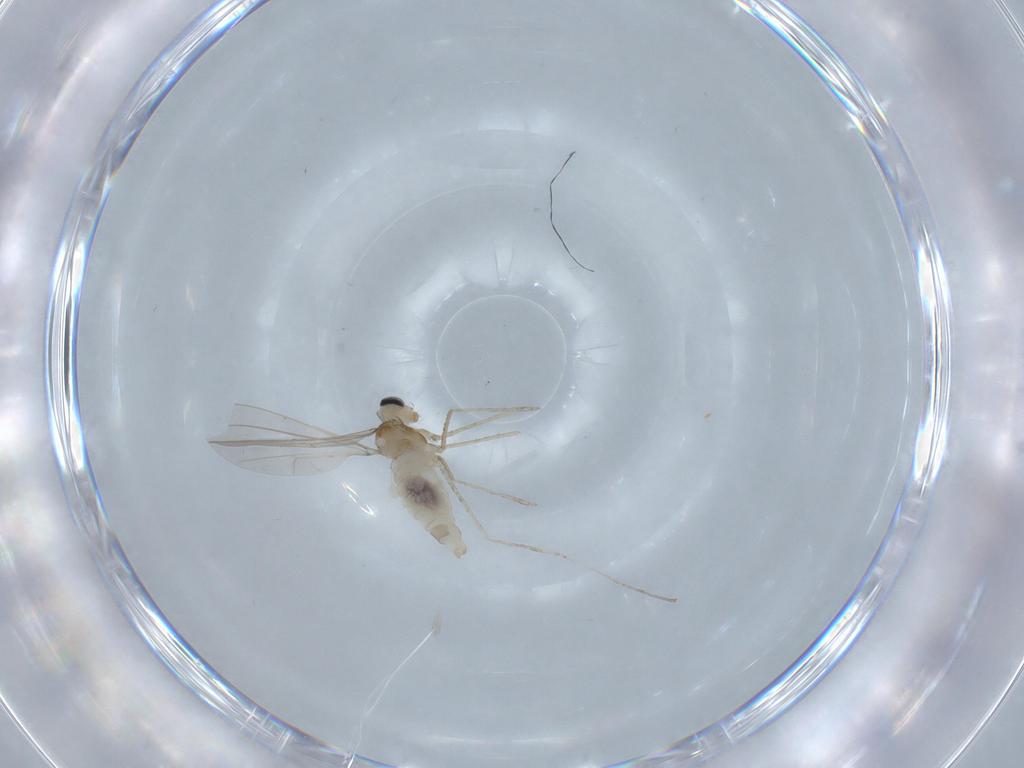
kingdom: Animalia
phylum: Arthropoda
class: Insecta
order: Diptera
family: Cecidomyiidae
